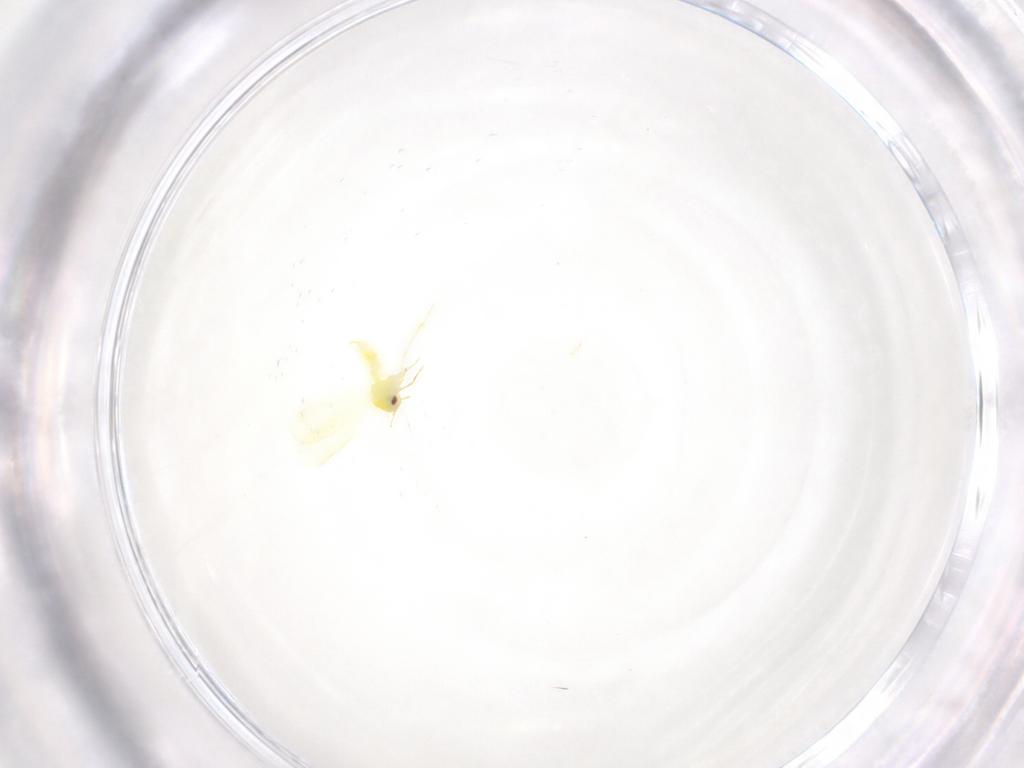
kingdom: Animalia
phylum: Arthropoda
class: Insecta
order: Hemiptera
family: Aleyrodidae
